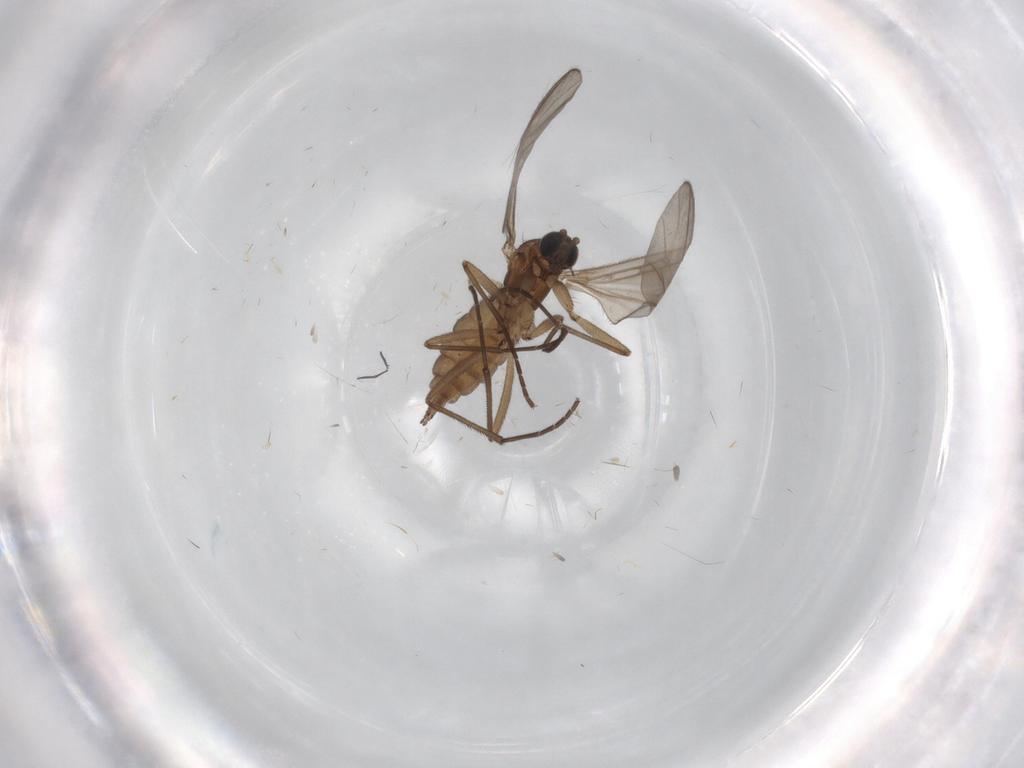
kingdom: Animalia
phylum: Arthropoda
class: Insecta
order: Diptera
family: Sciaridae
